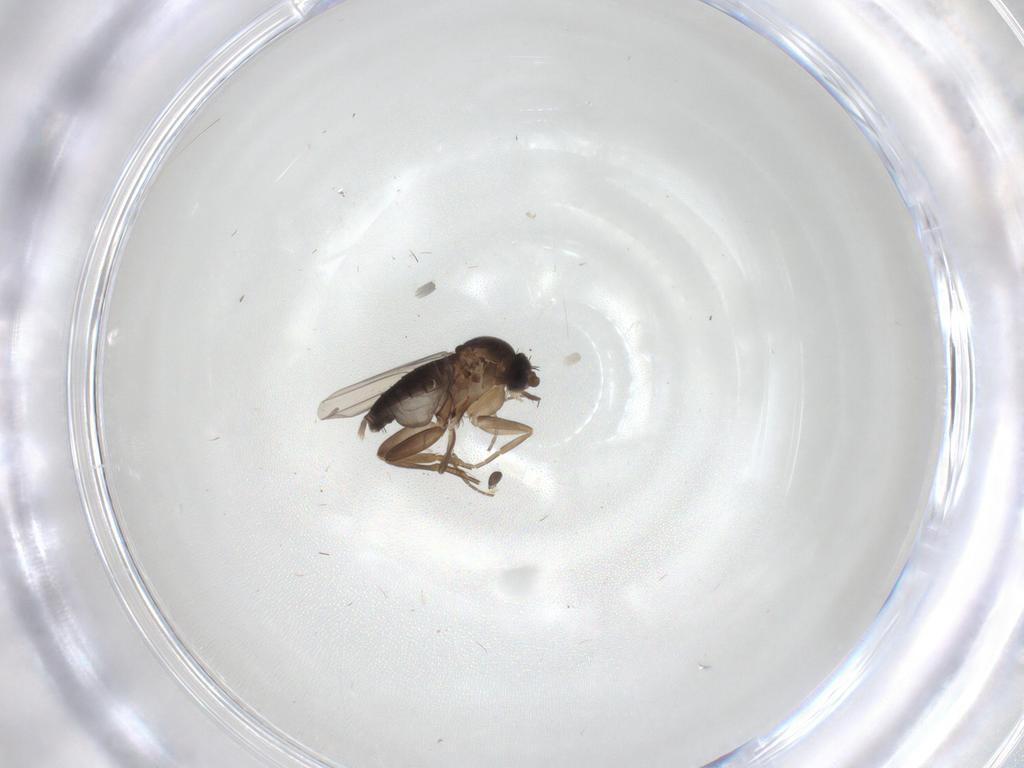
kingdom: Animalia
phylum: Arthropoda
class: Insecta
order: Diptera
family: Phoridae
